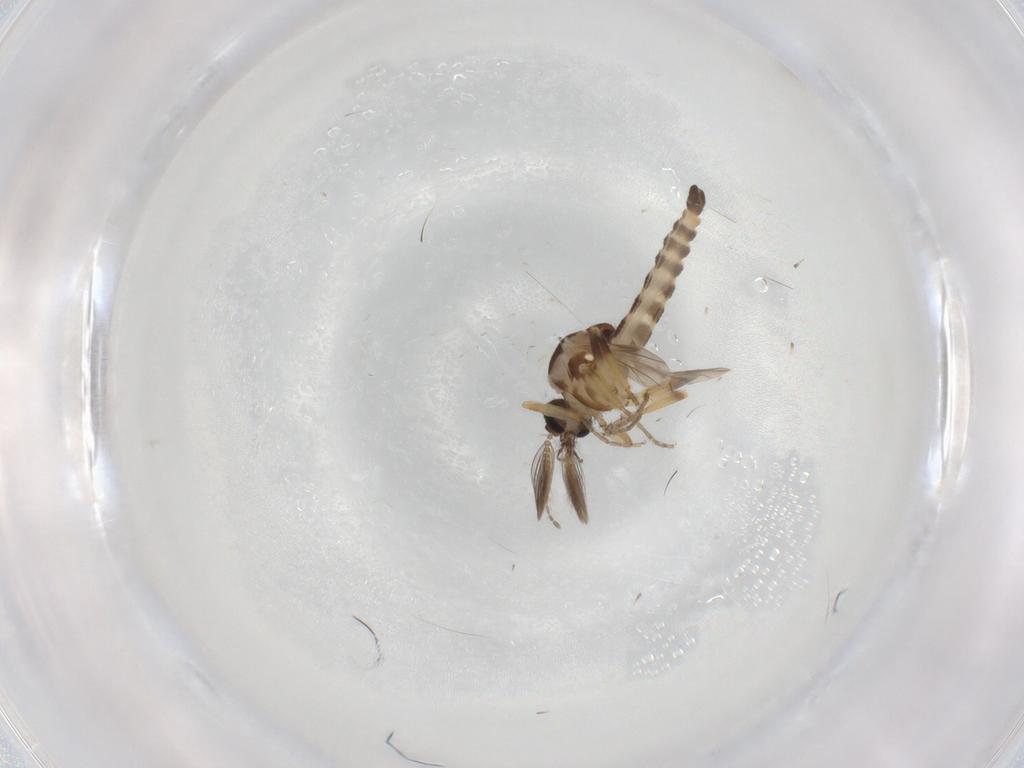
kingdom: Animalia
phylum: Arthropoda
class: Insecta
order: Diptera
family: Ceratopogonidae
